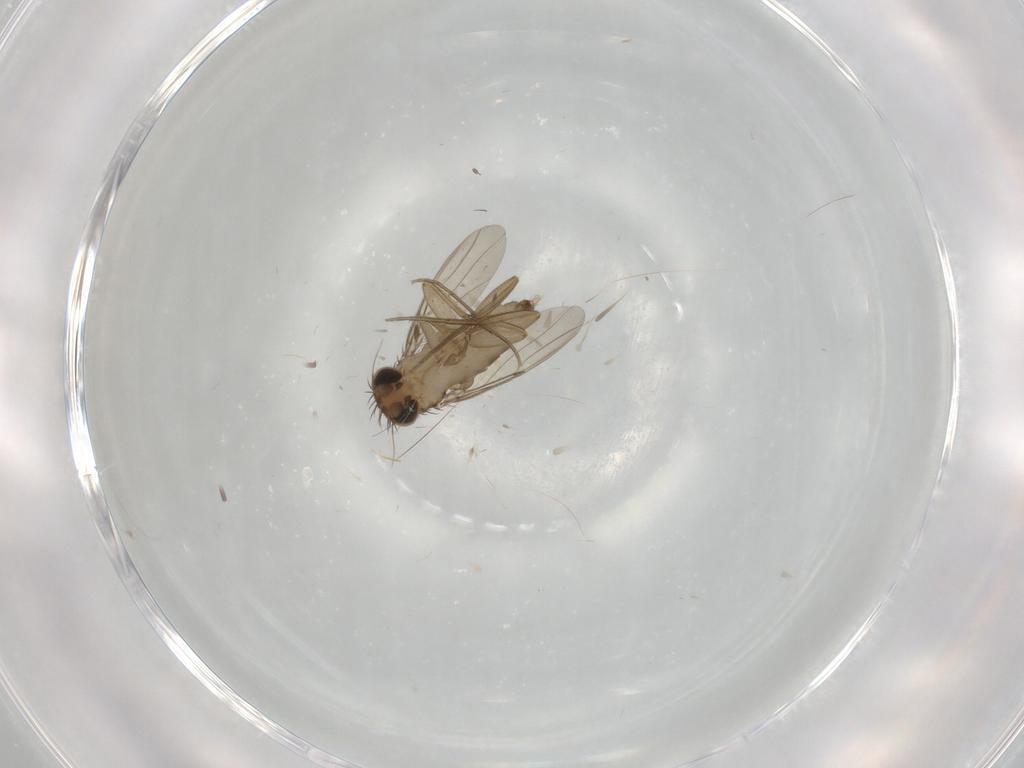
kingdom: Animalia
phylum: Arthropoda
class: Insecta
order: Diptera
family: Phoridae
